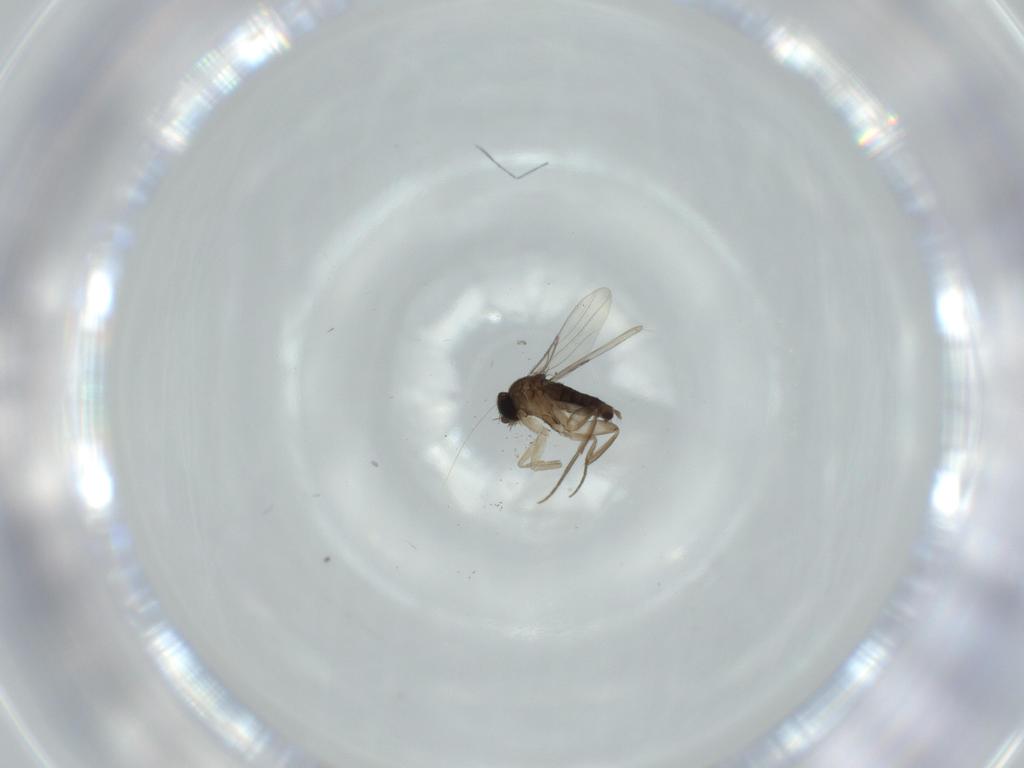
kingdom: Animalia
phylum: Arthropoda
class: Insecta
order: Diptera
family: Phoridae
